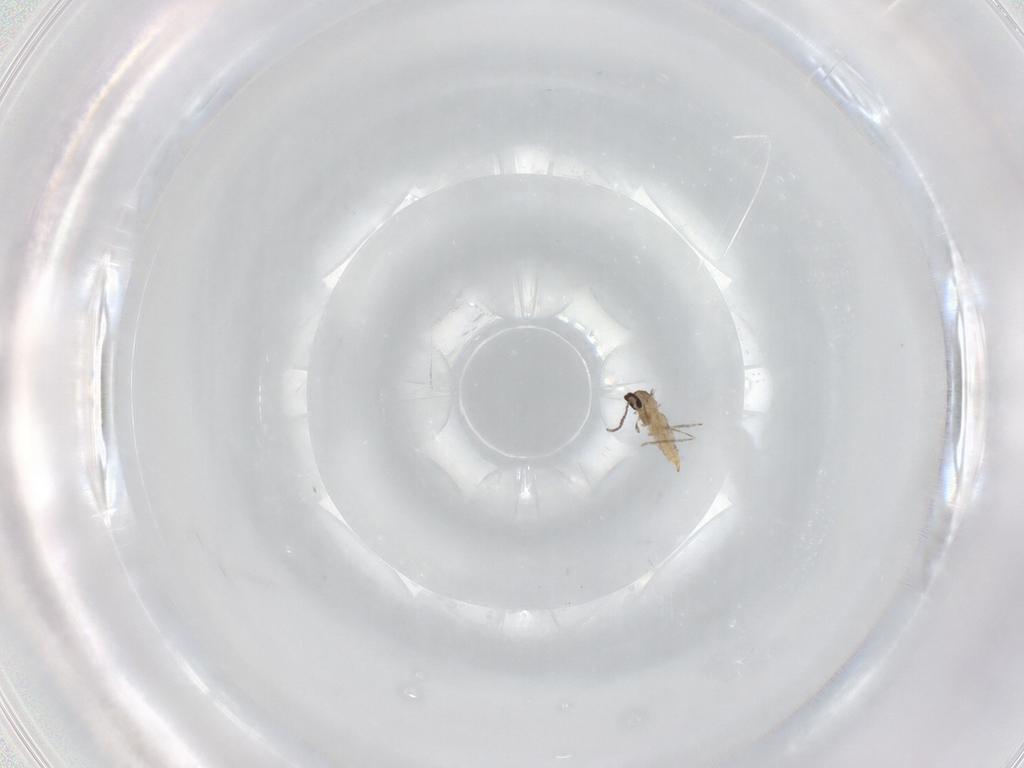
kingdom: Animalia
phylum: Arthropoda
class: Insecta
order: Diptera
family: Cecidomyiidae
